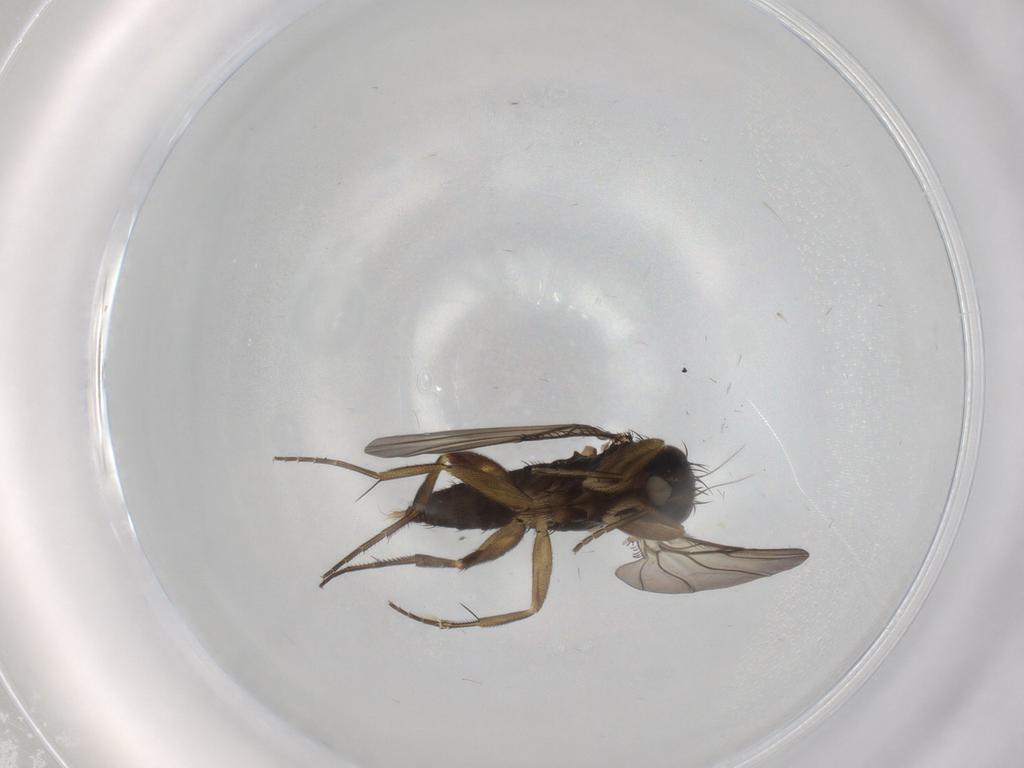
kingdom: Animalia
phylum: Arthropoda
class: Insecta
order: Diptera
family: Phoridae
